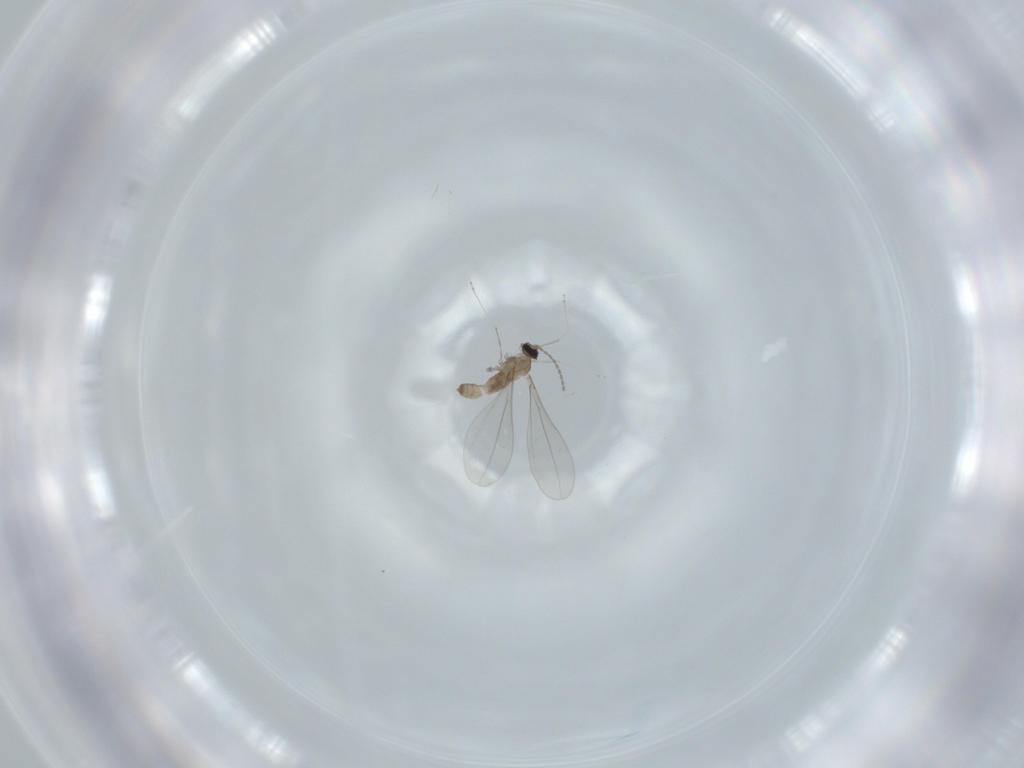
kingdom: Animalia
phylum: Arthropoda
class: Insecta
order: Diptera
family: Cecidomyiidae
